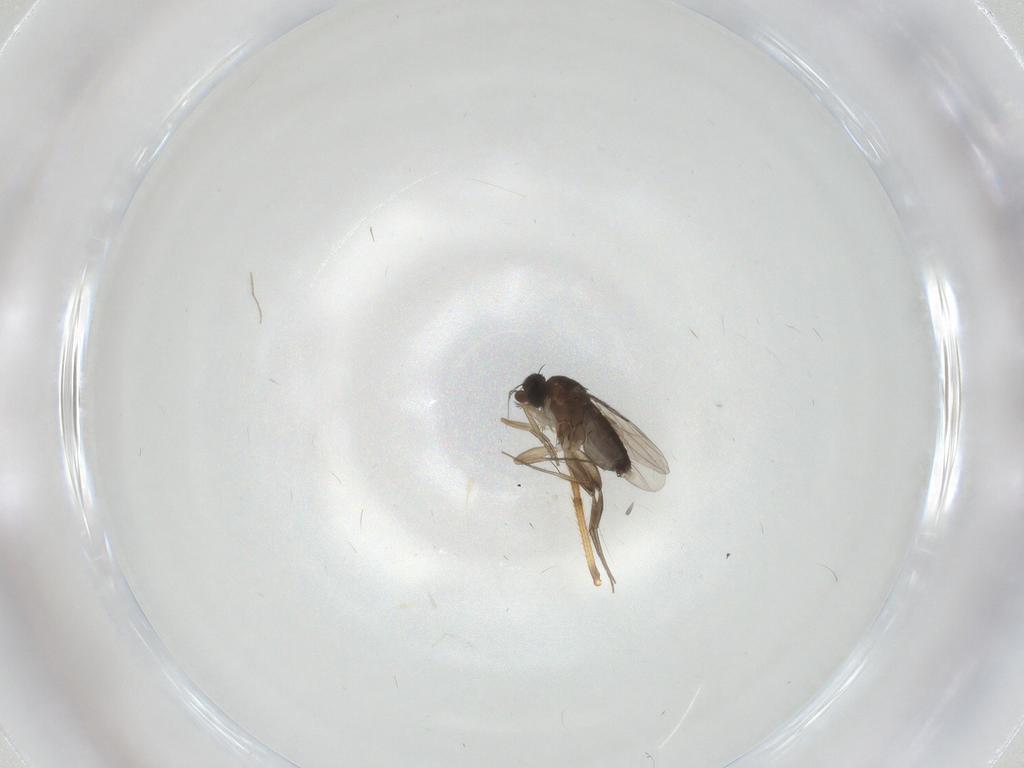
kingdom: Animalia
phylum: Arthropoda
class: Insecta
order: Diptera
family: Phoridae
